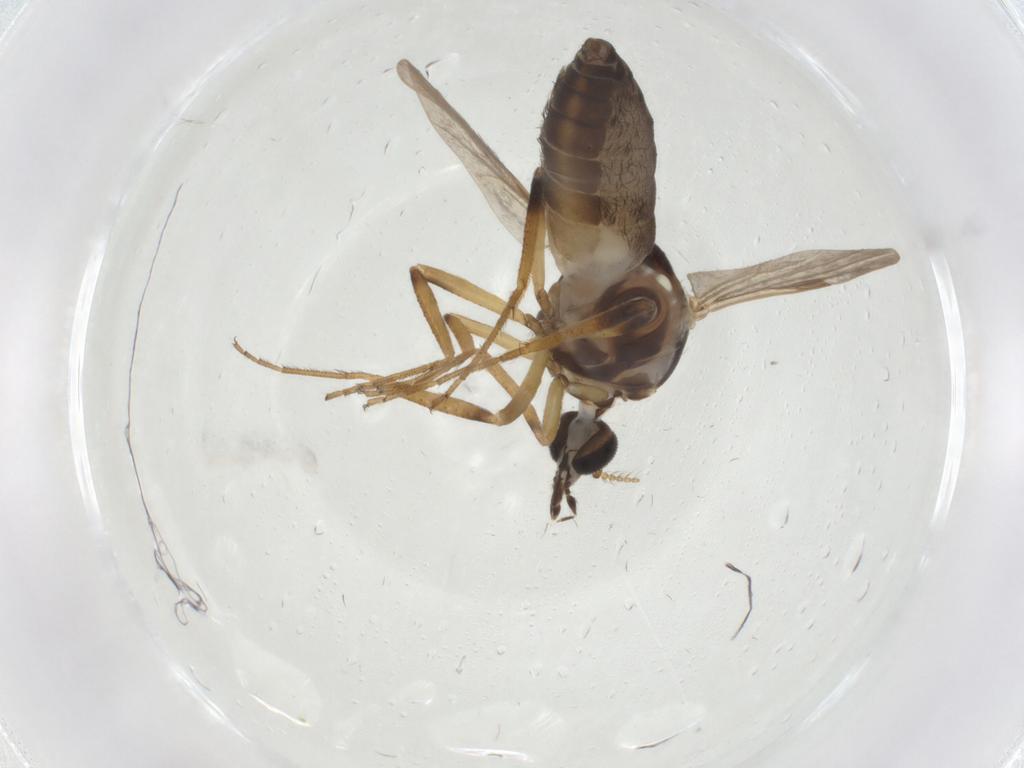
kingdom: Animalia
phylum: Arthropoda
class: Insecta
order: Diptera
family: Ceratopogonidae
